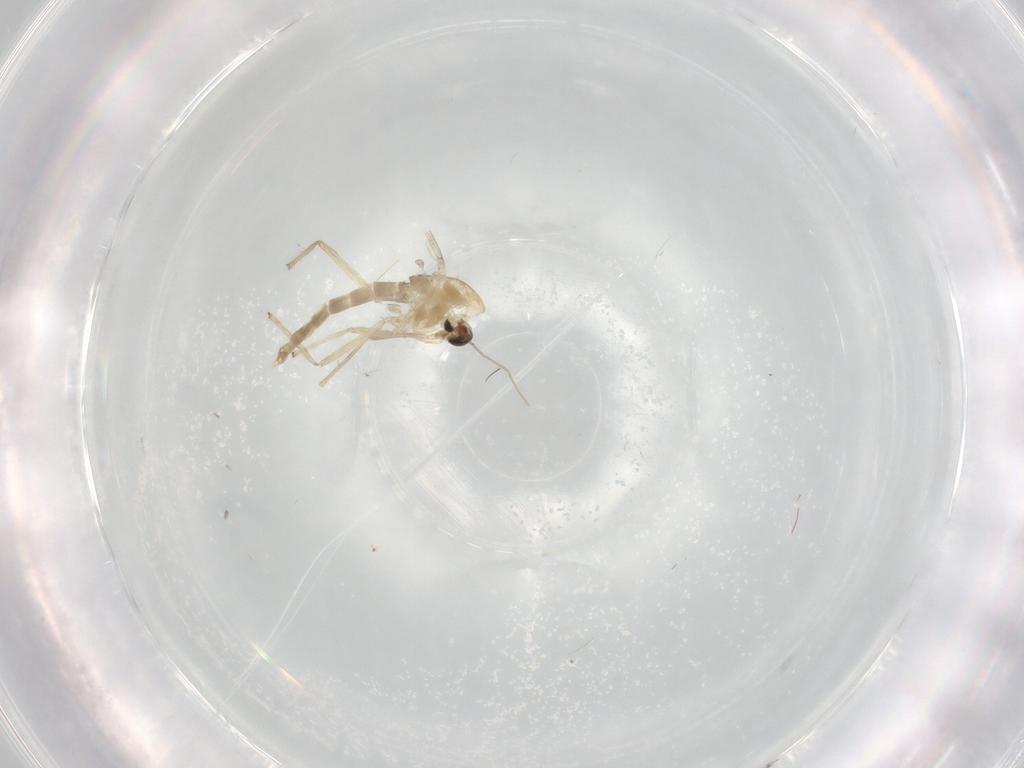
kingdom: Animalia
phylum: Arthropoda
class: Insecta
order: Diptera
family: Chironomidae
